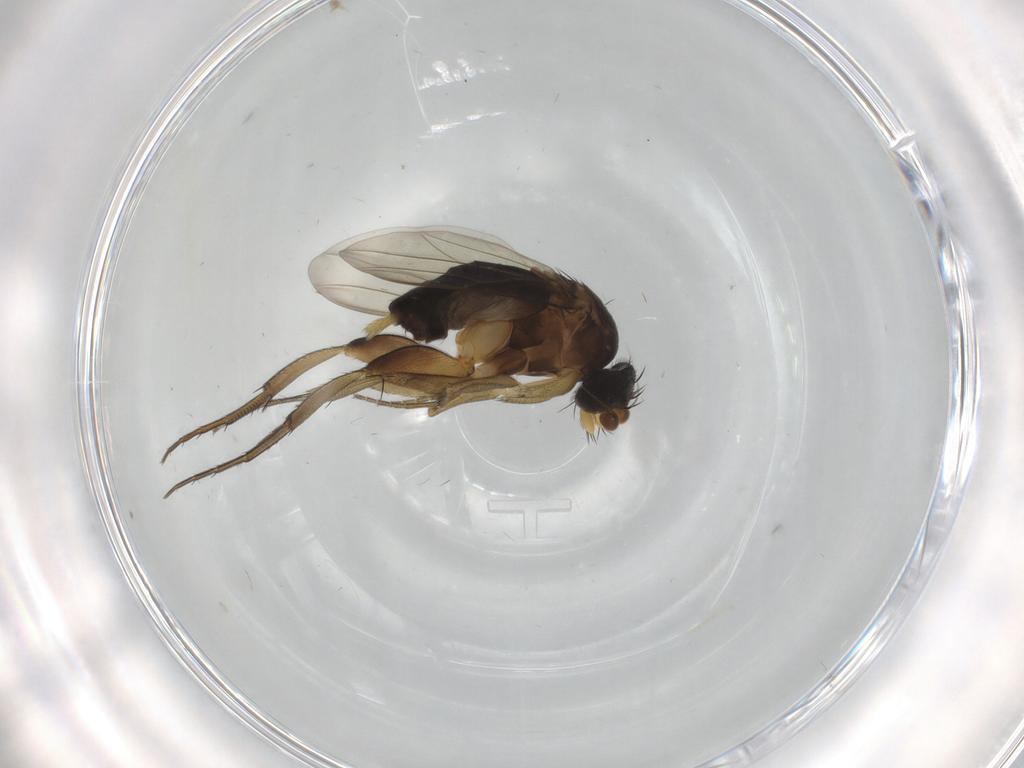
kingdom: Animalia
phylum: Arthropoda
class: Insecta
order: Diptera
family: Phoridae
